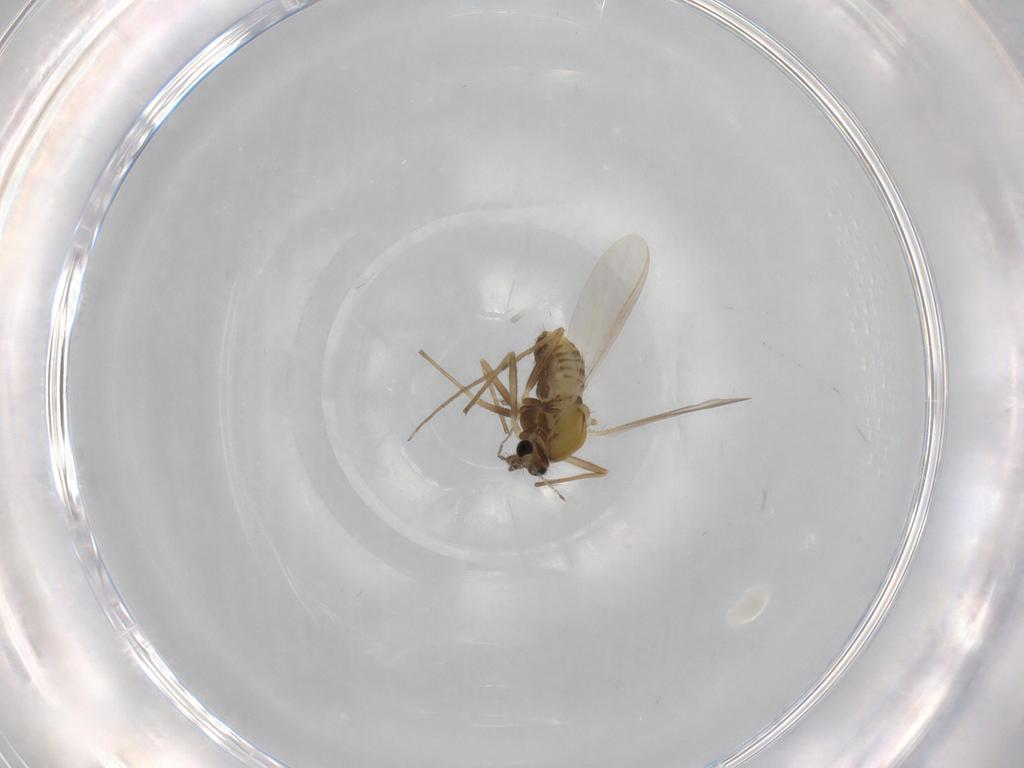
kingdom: Animalia
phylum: Arthropoda
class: Insecta
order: Diptera
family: Chironomidae
